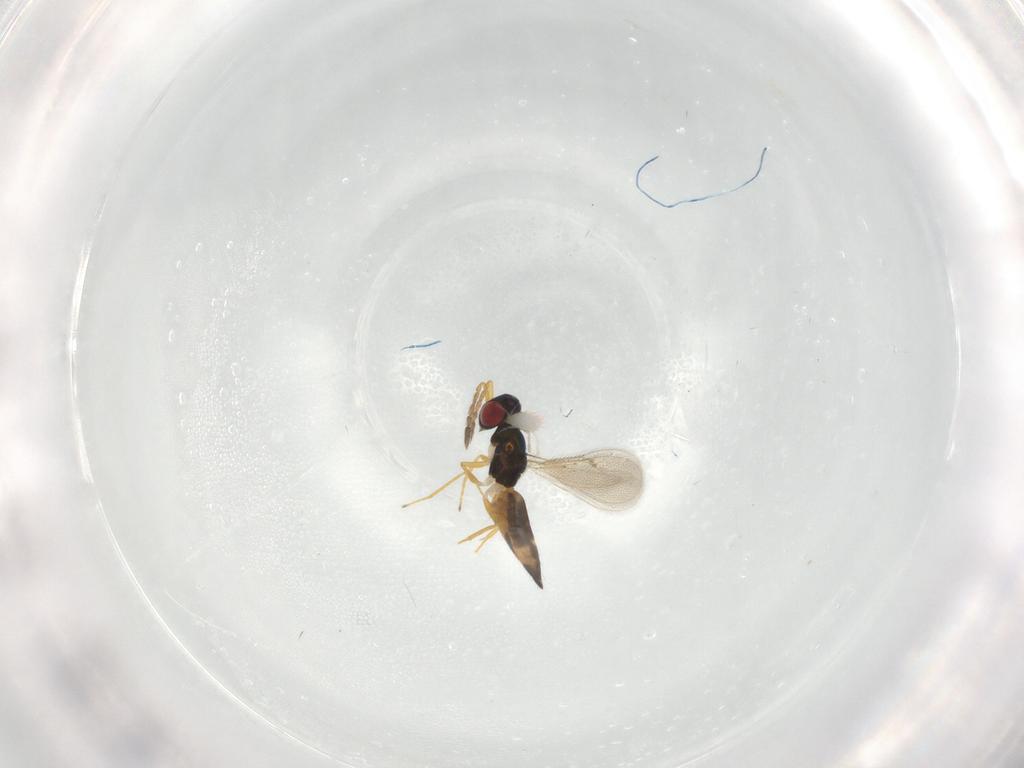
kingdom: Animalia
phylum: Arthropoda
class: Insecta
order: Hymenoptera
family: Eulophidae
